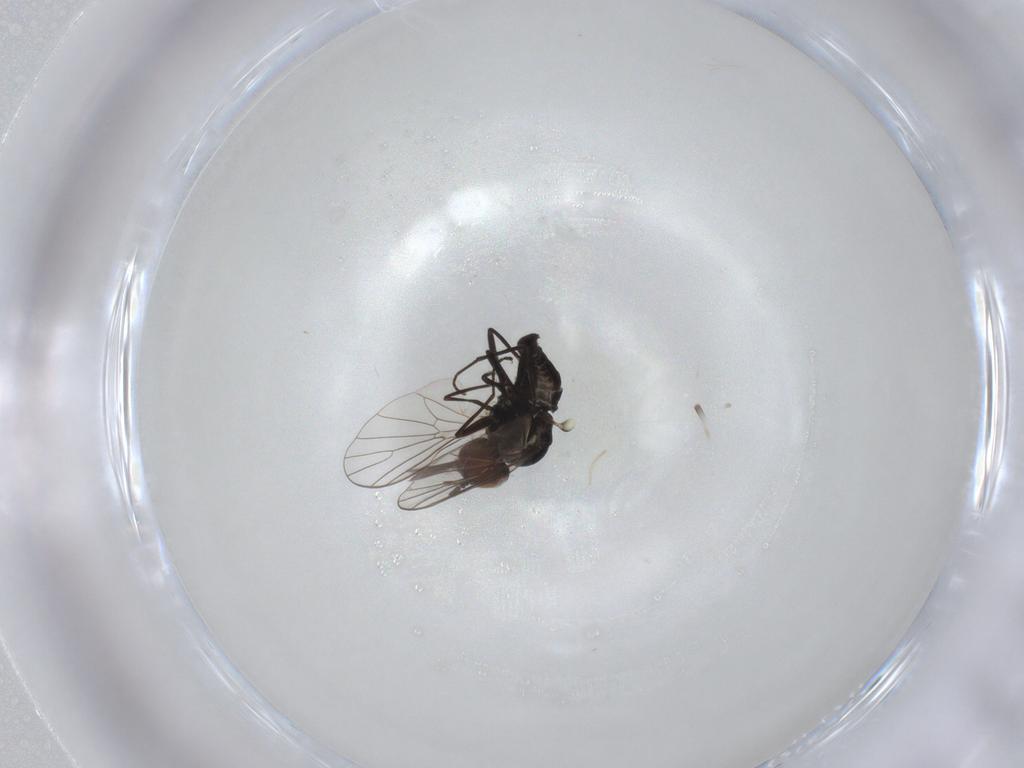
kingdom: Animalia
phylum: Arthropoda
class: Insecta
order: Diptera
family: Bombyliidae
